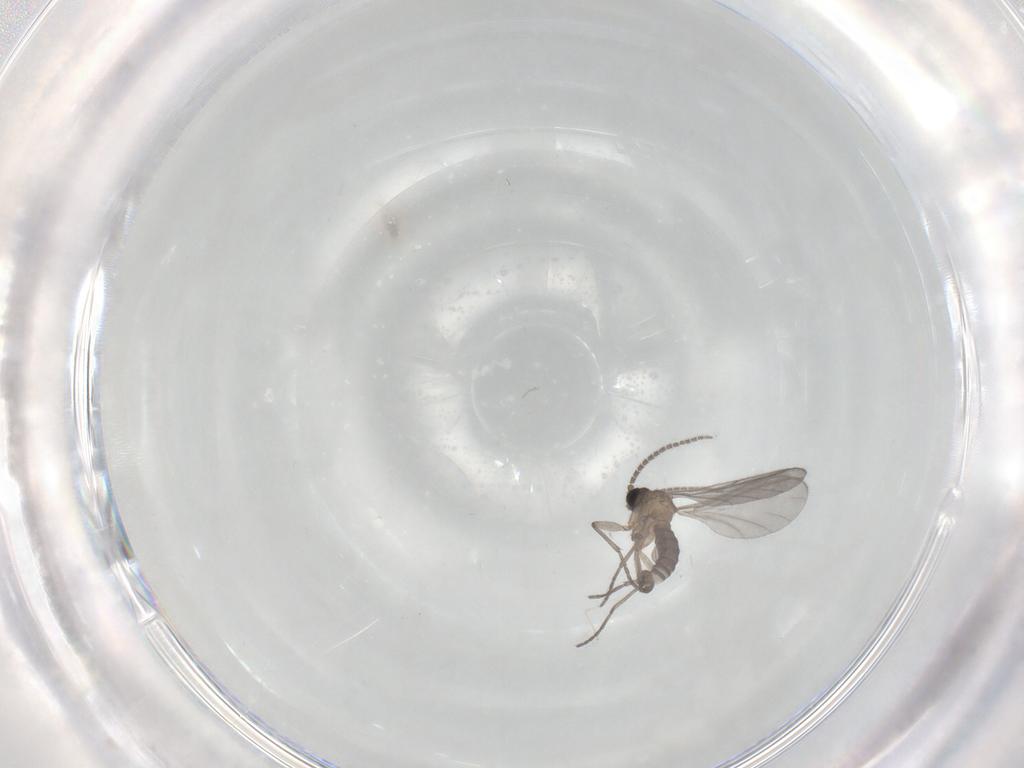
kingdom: Animalia
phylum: Arthropoda
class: Insecta
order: Diptera
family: Sciaridae
